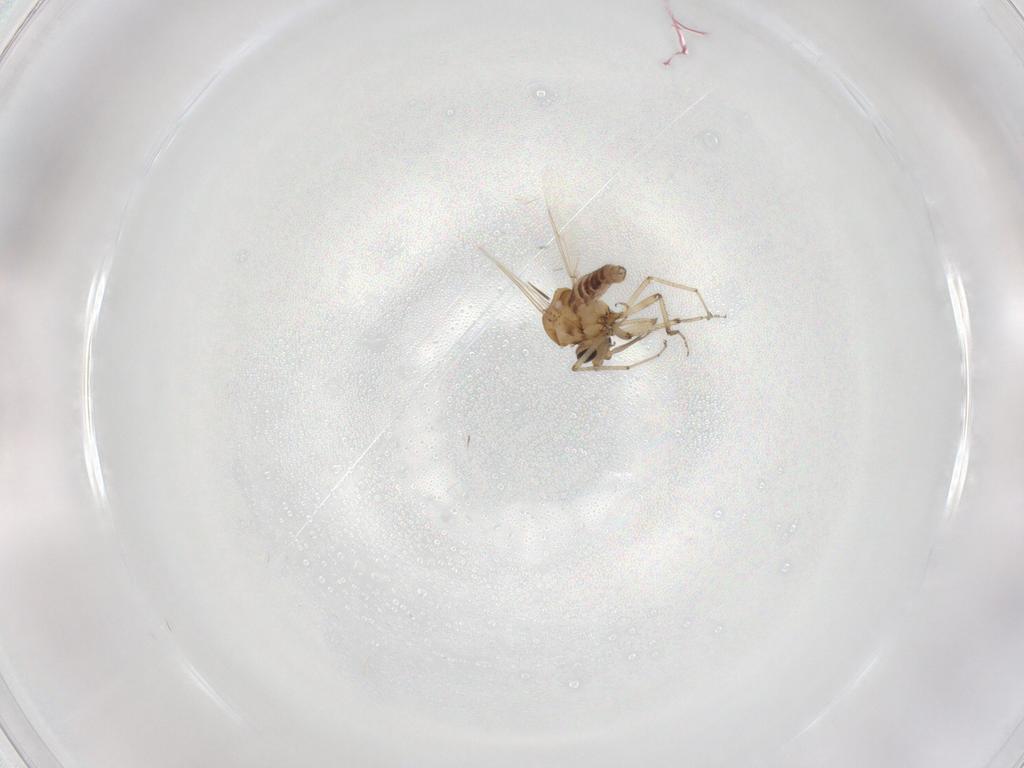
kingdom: Animalia
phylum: Arthropoda
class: Insecta
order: Diptera
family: Ceratopogonidae
